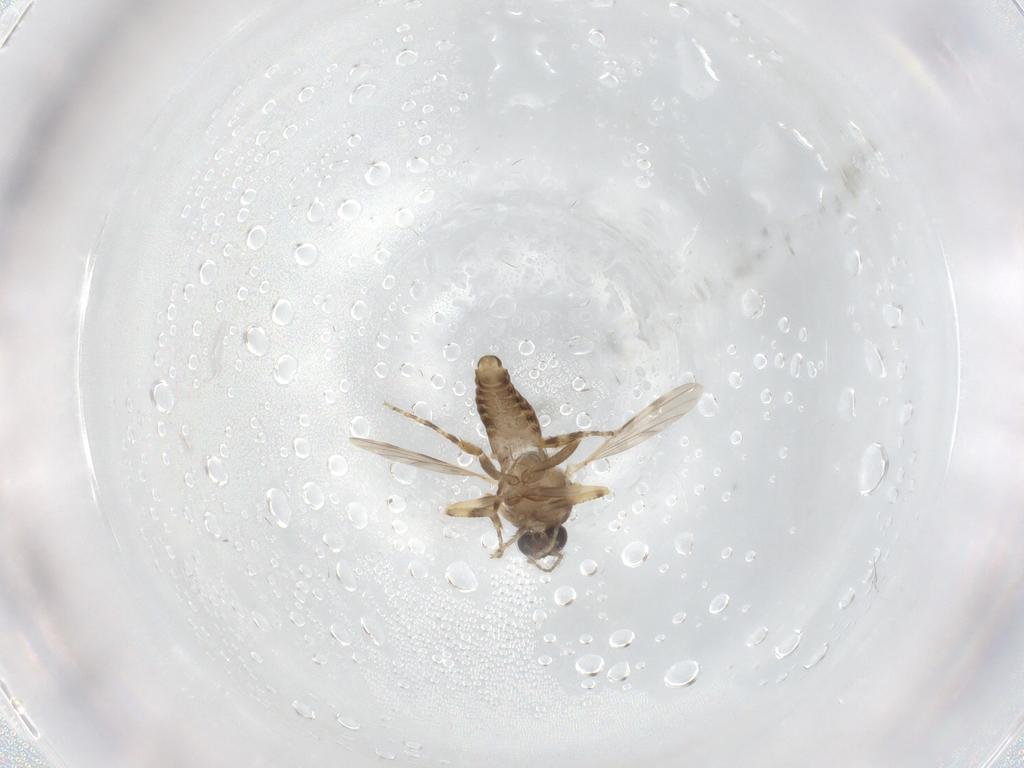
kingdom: Animalia
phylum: Arthropoda
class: Insecta
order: Diptera
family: Ceratopogonidae
